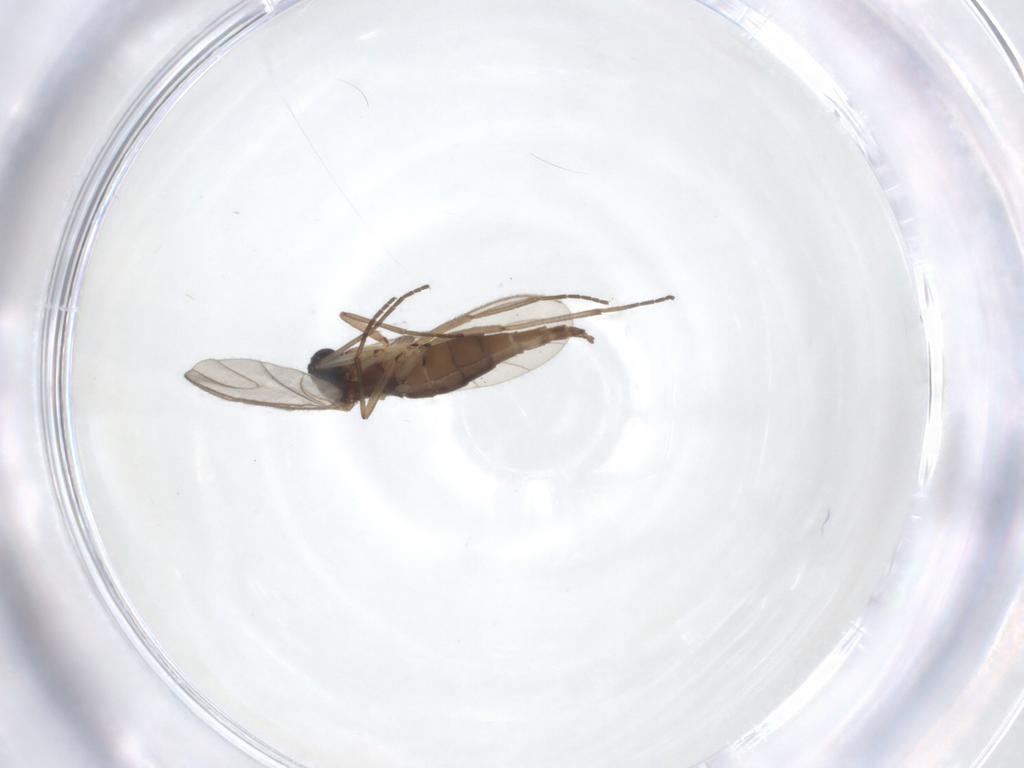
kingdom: Animalia
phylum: Arthropoda
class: Insecta
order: Diptera
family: Sciaridae
